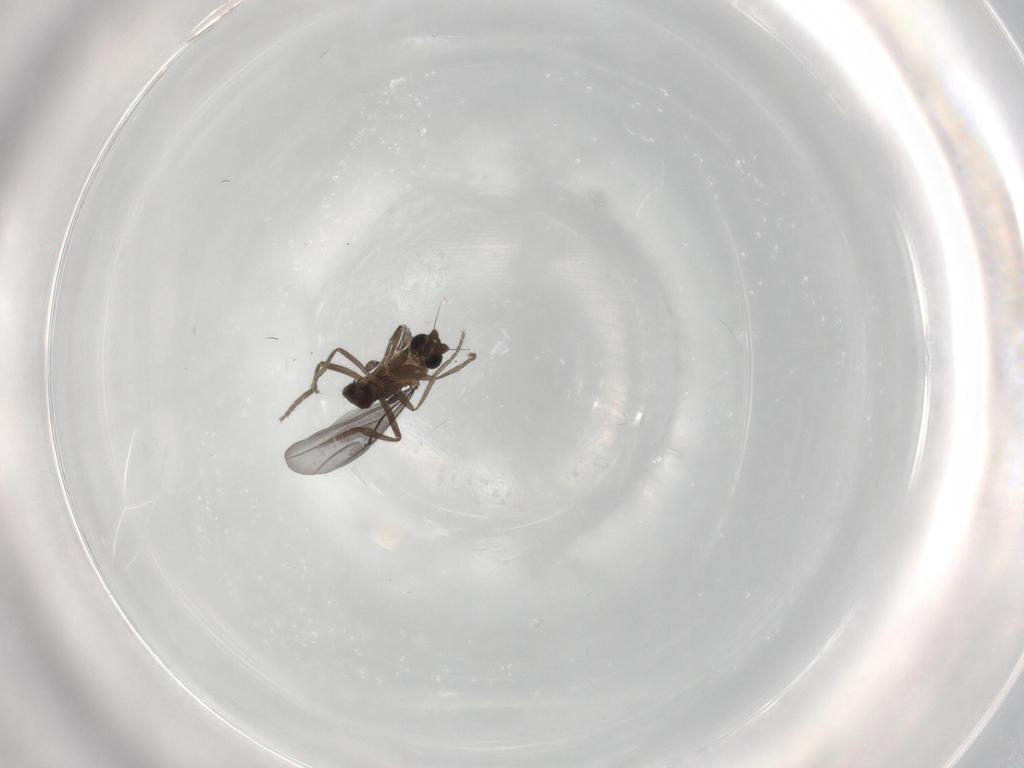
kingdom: Animalia
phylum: Arthropoda
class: Insecta
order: Diptera
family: Phoridae
